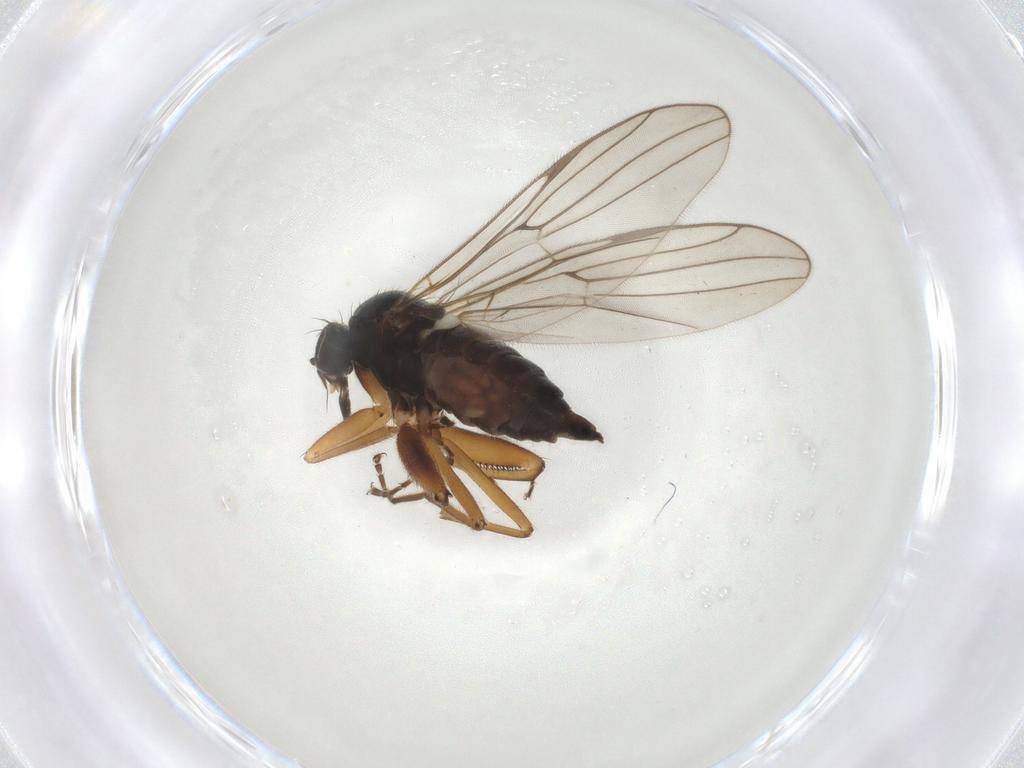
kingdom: Animalia
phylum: Arthropoda
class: Insecta
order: Diptera
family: Hybotidae
